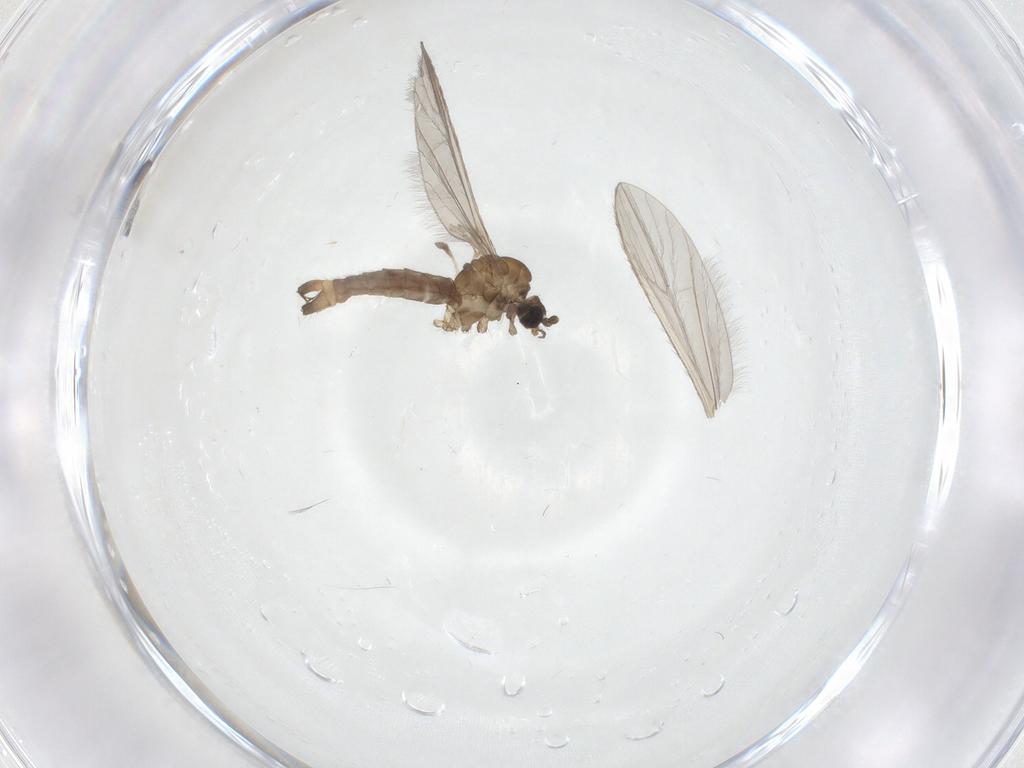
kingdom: Animalia
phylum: Arthropoda
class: Insecta
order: Diptera
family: Limoniidae
